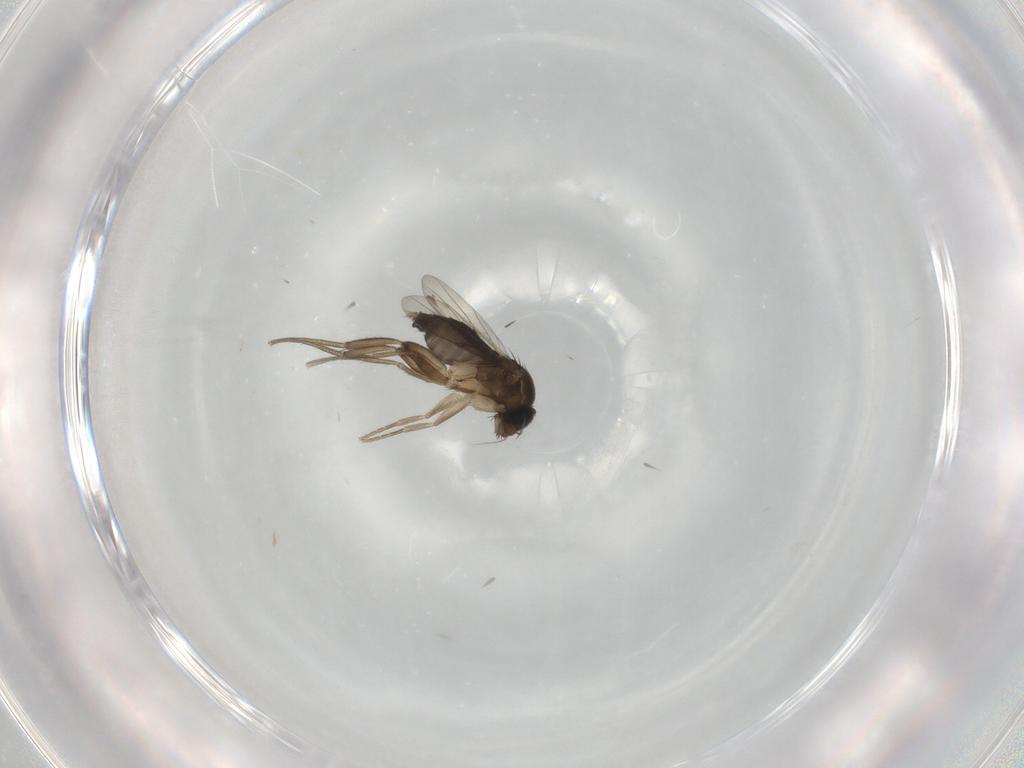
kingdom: Animalia
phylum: Arthropoda
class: Insecta
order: Diptera
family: Phoridae
